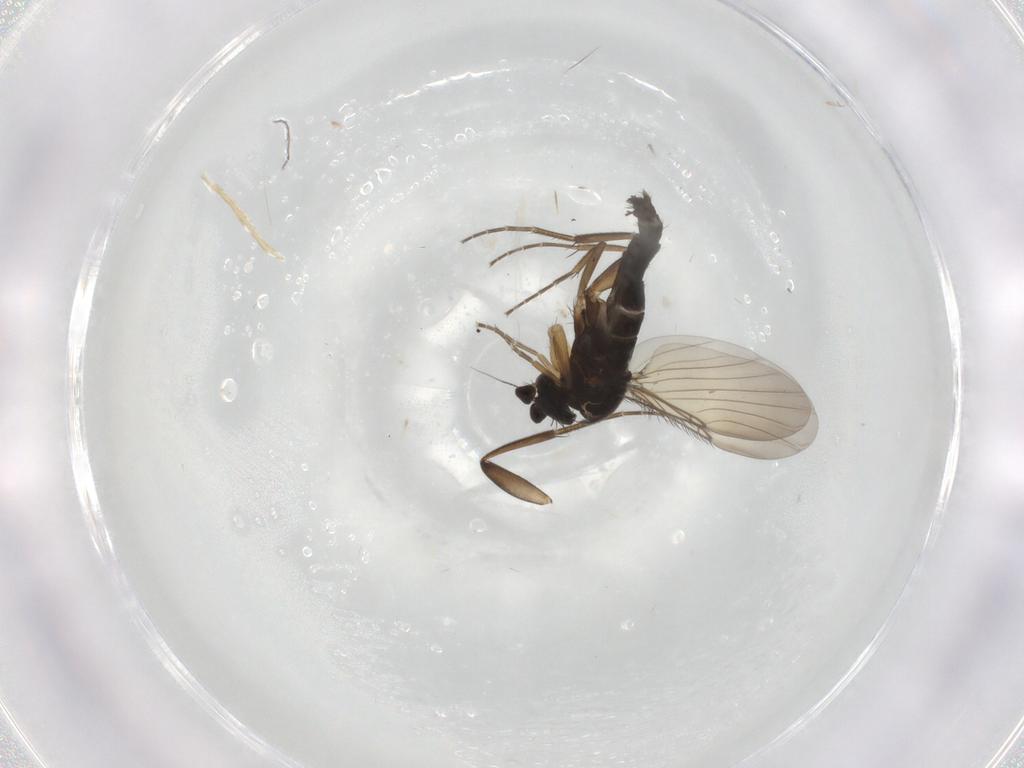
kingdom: Animalia
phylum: Arthropoda
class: Insecta
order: Diptera
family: Phoridae
